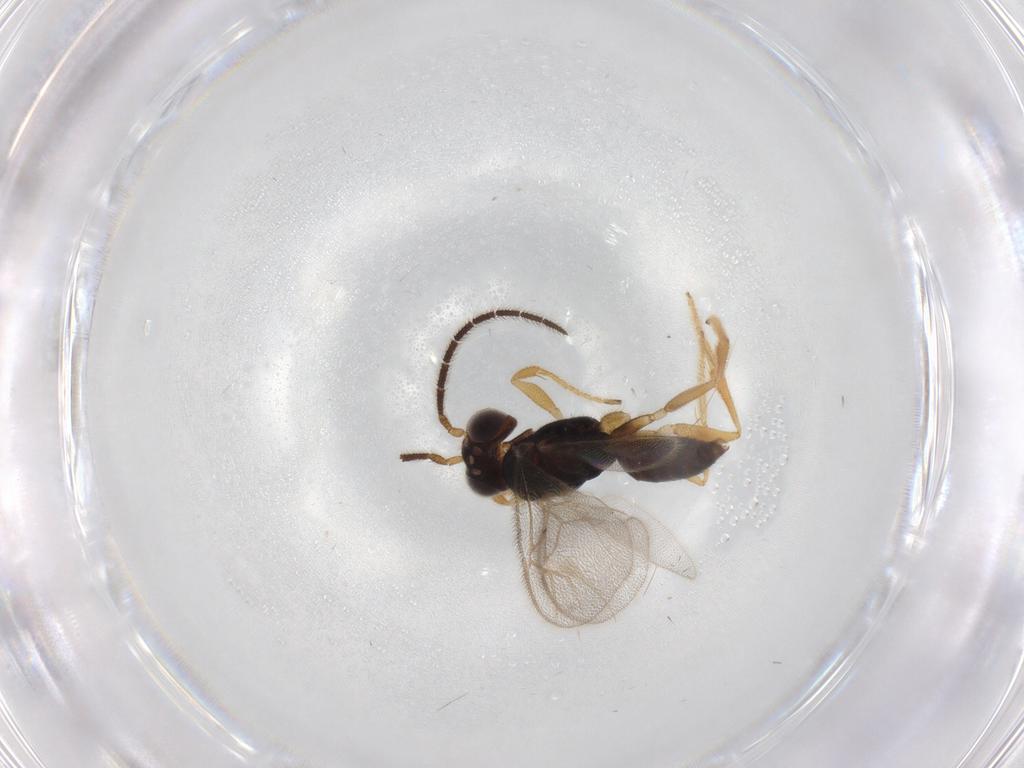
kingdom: Animalia
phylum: Arthropoda
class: Insecta
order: Hymenoptera
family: Dryinidae
